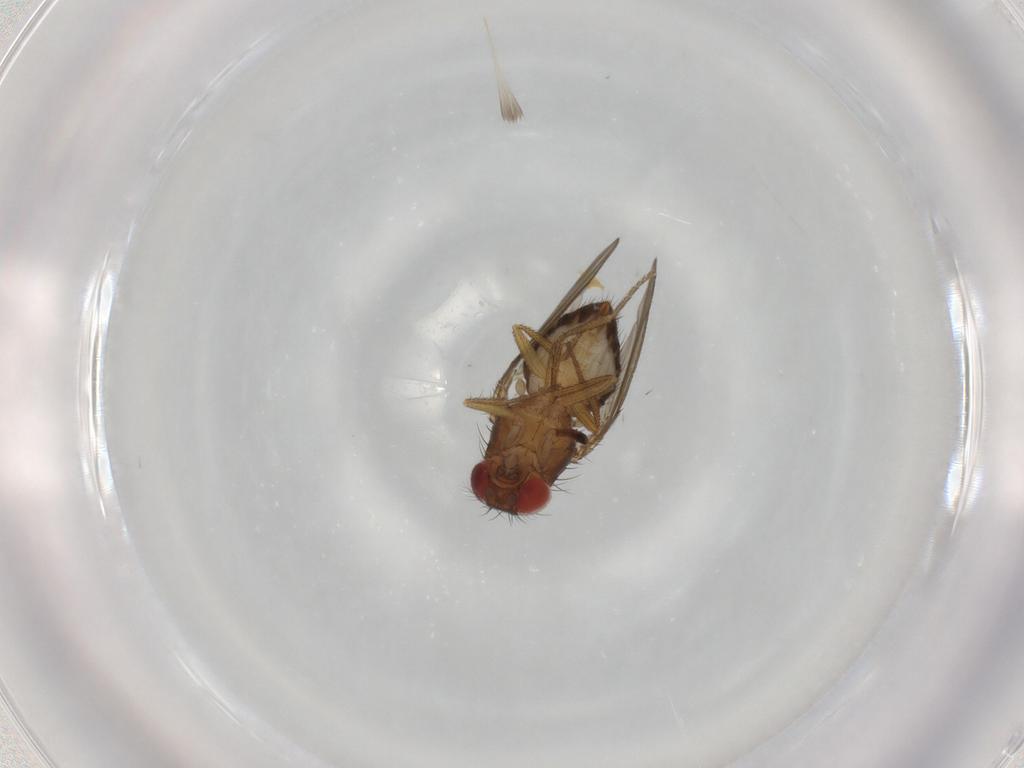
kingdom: Animalia
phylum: Arthropoda
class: Insecta
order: Diptera
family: Drosophilidae
